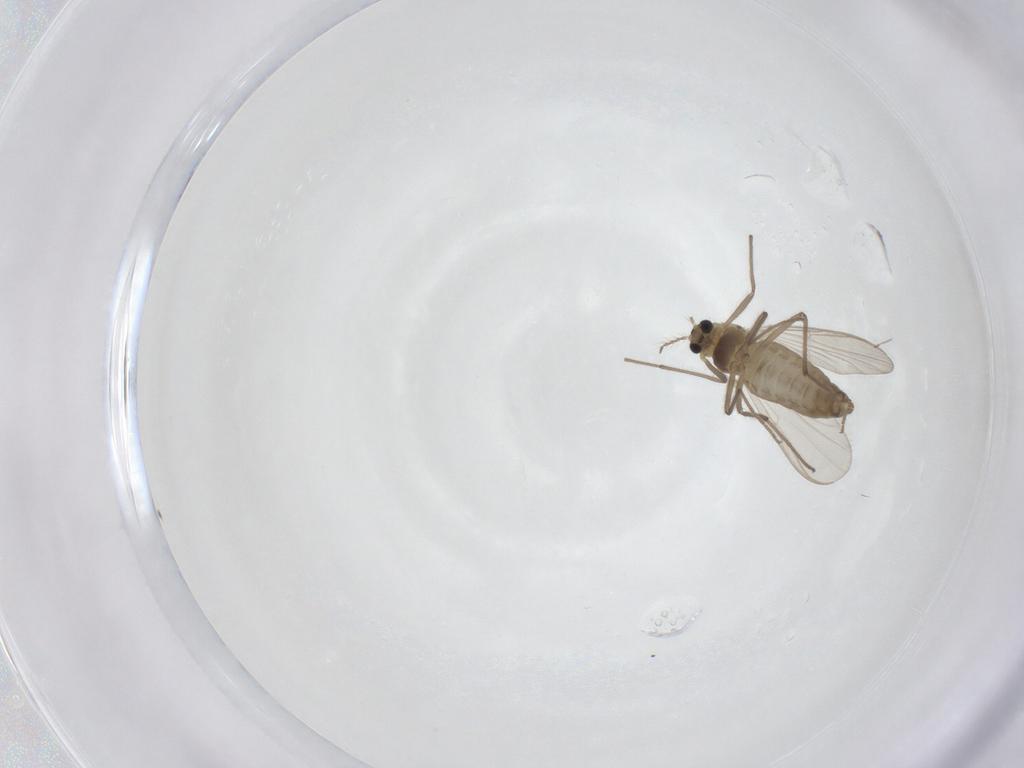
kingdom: Animalia
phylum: Arthropoda
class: Insecta
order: Diptera
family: Chironomidae
